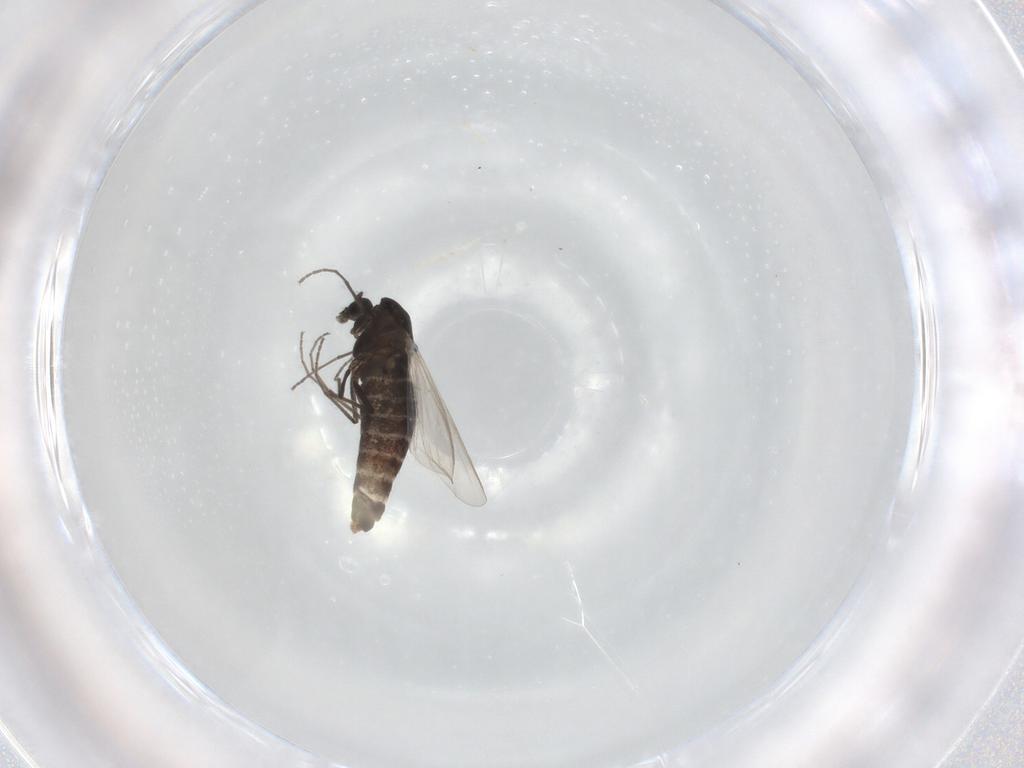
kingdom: Animalia
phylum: Arthropoda
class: Insecta
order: Diptera
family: Chironomidae
